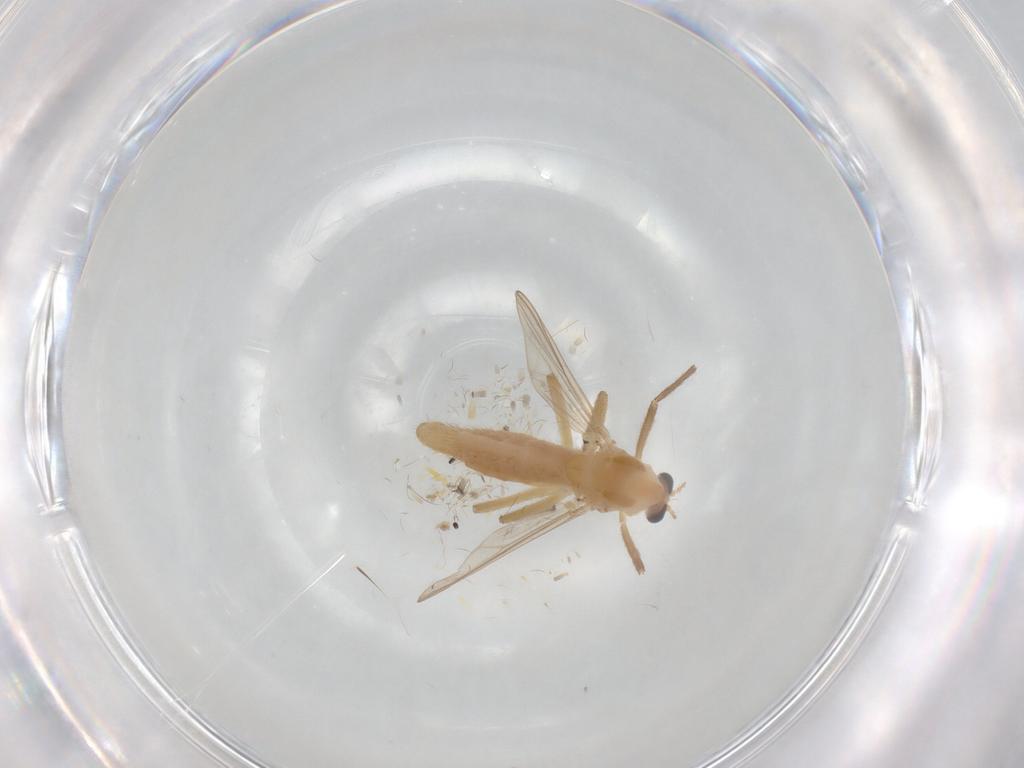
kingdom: Animalia
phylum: Arthropoda
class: Insecta
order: Diptera
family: Chironomidae
